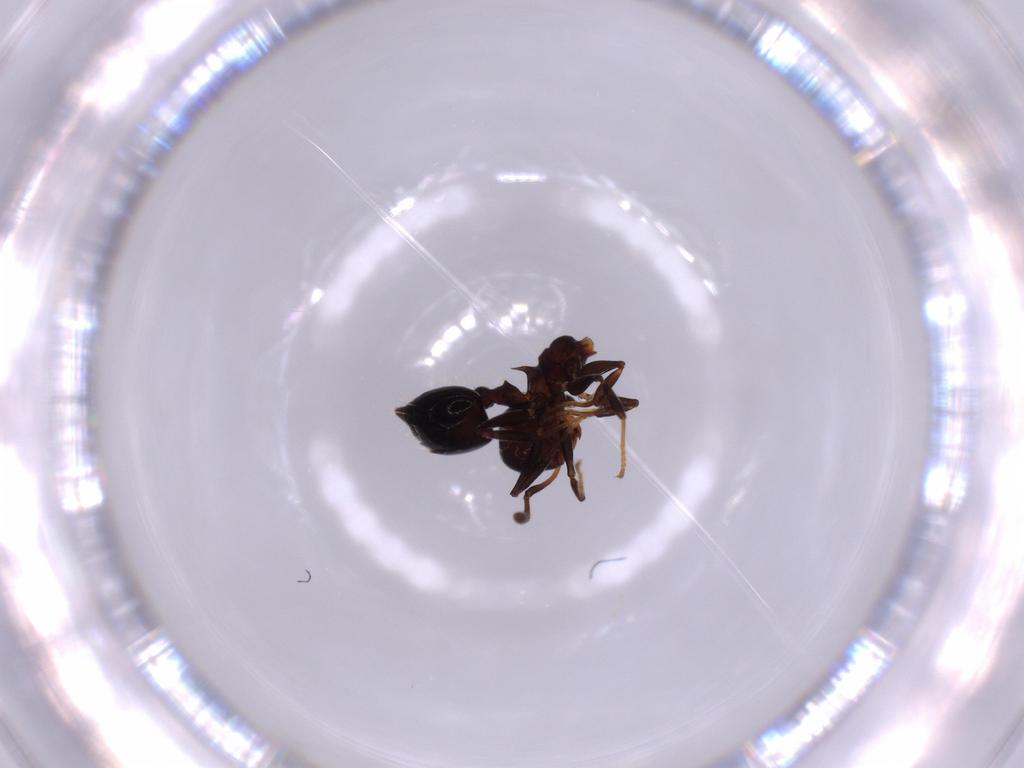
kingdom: Animalia
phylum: Arthropoda
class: Insecta
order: Hymenoptera
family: Formicidae
